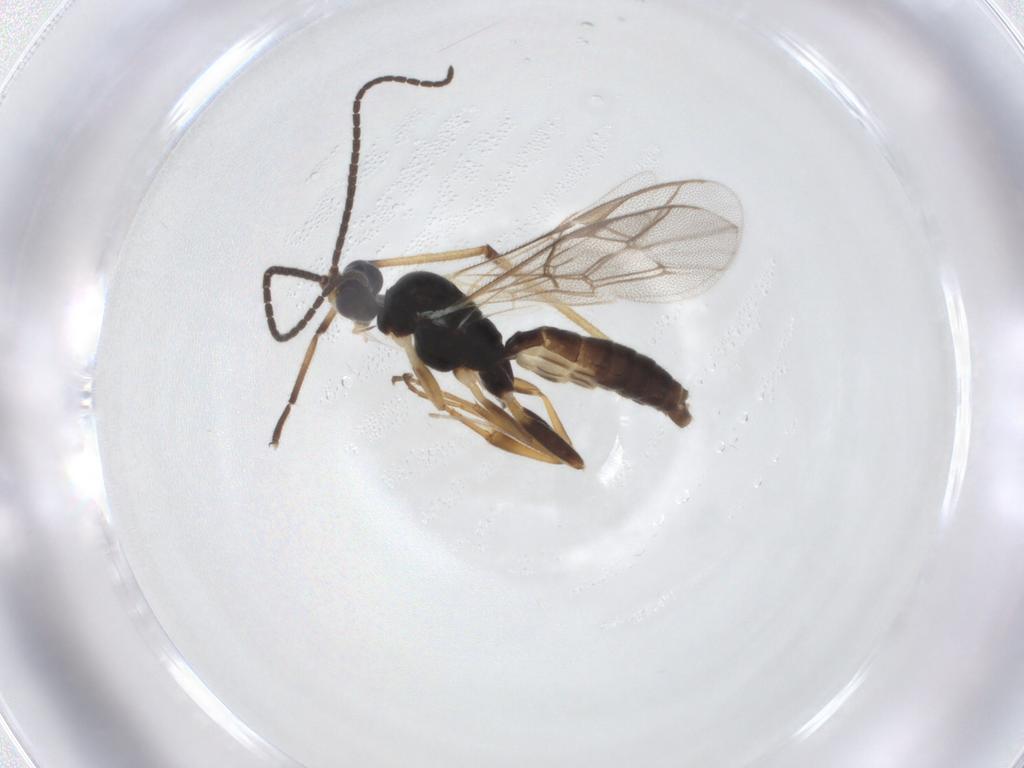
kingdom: Animalia
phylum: Arthropoda
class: Insecta
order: Hymenoptera
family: Ichneumonidae
